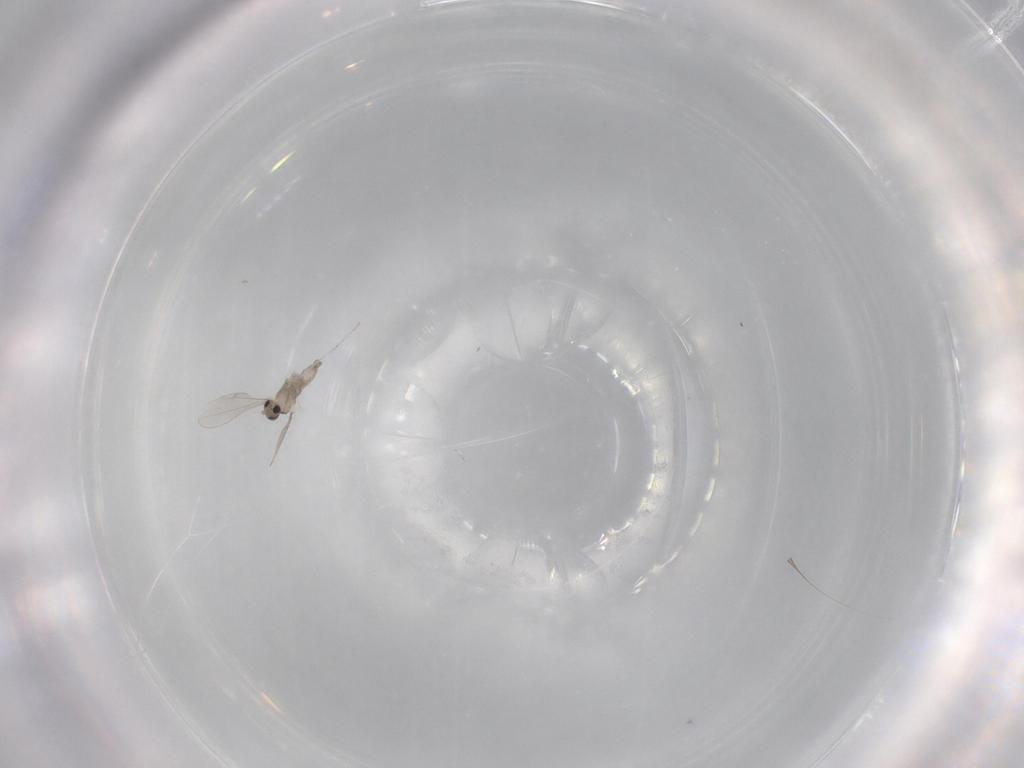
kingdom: Animalia
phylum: Arthropoda
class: Insecta
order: Diptera
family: Cecidomyiidae
